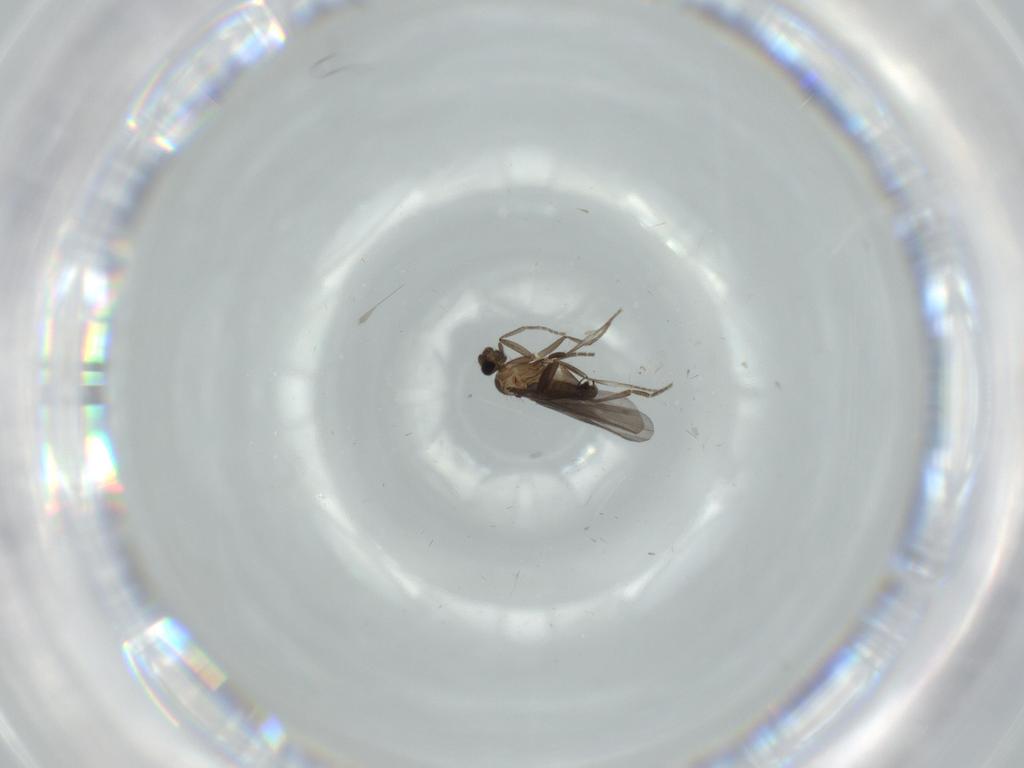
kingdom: Animalia
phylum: Arthropoda
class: Insecta
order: Diptera
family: Phoridae
